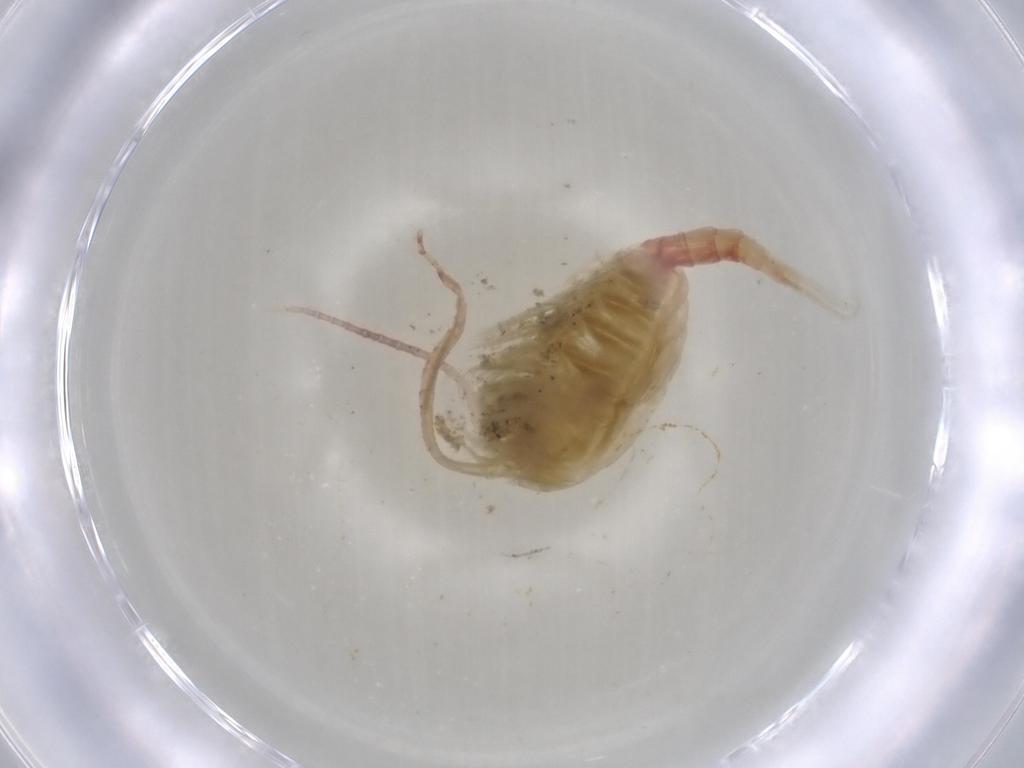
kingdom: Animalia
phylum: Arthropoda
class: Copepoda
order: Calanoida
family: Temoridae
